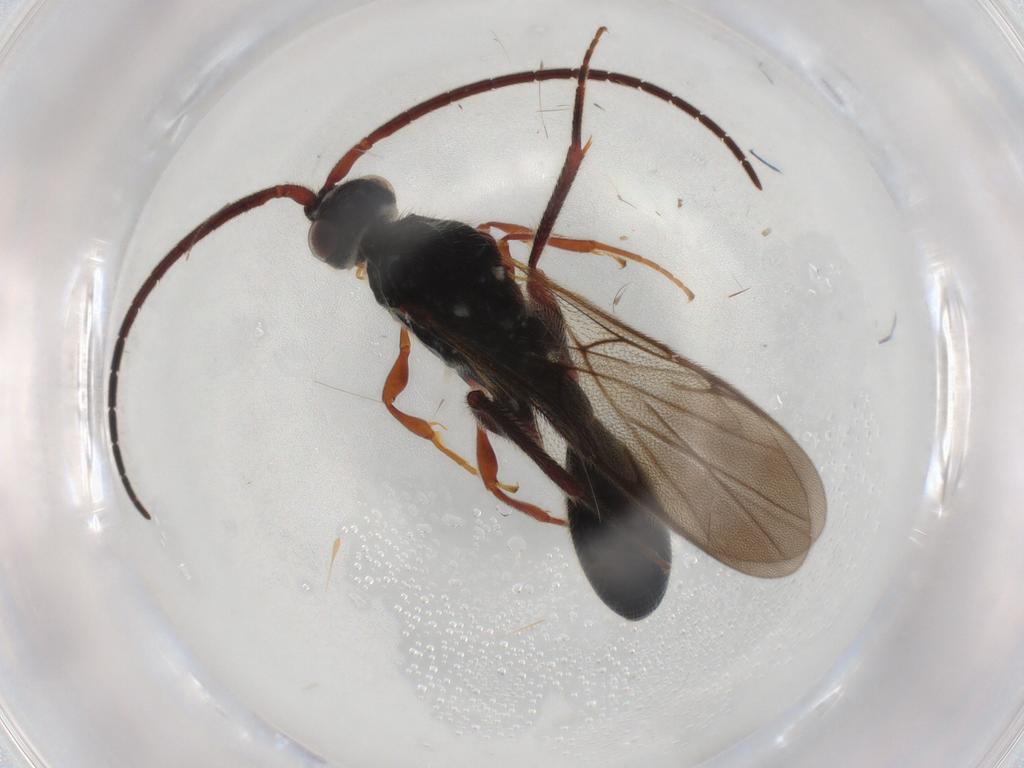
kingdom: Animalia
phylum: Arthropoda
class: Insecta
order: Hymenoptera
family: Diapriidae
